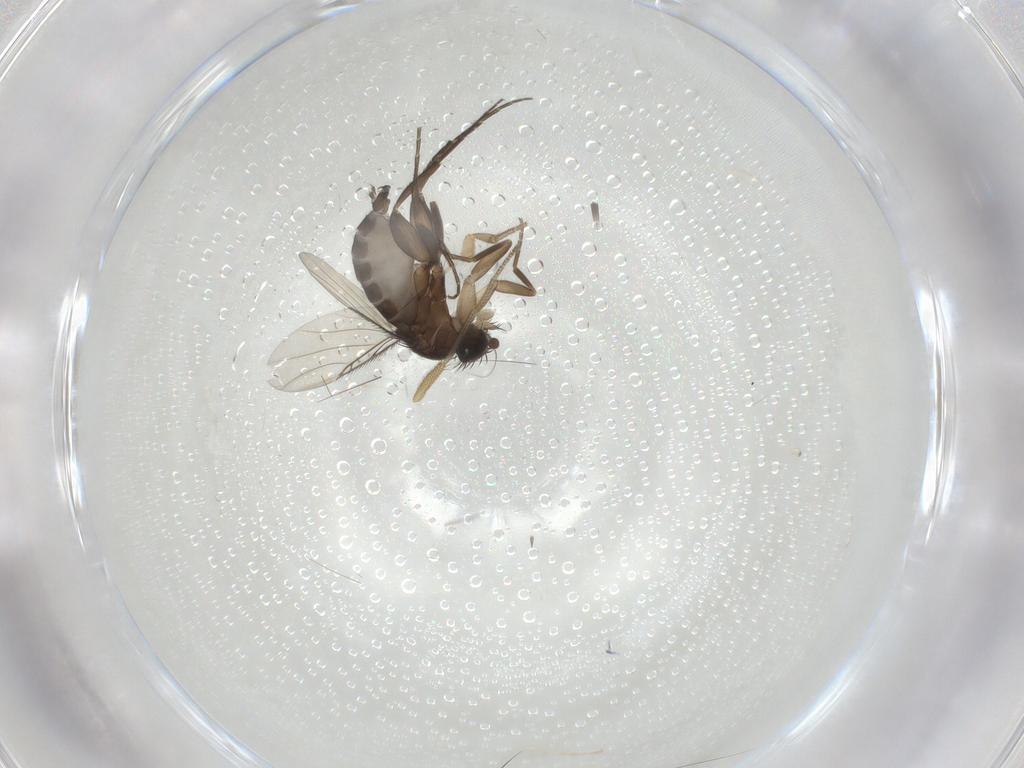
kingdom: Animalia
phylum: Arthropoda
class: Insecta
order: Diptera
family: Phoridae
